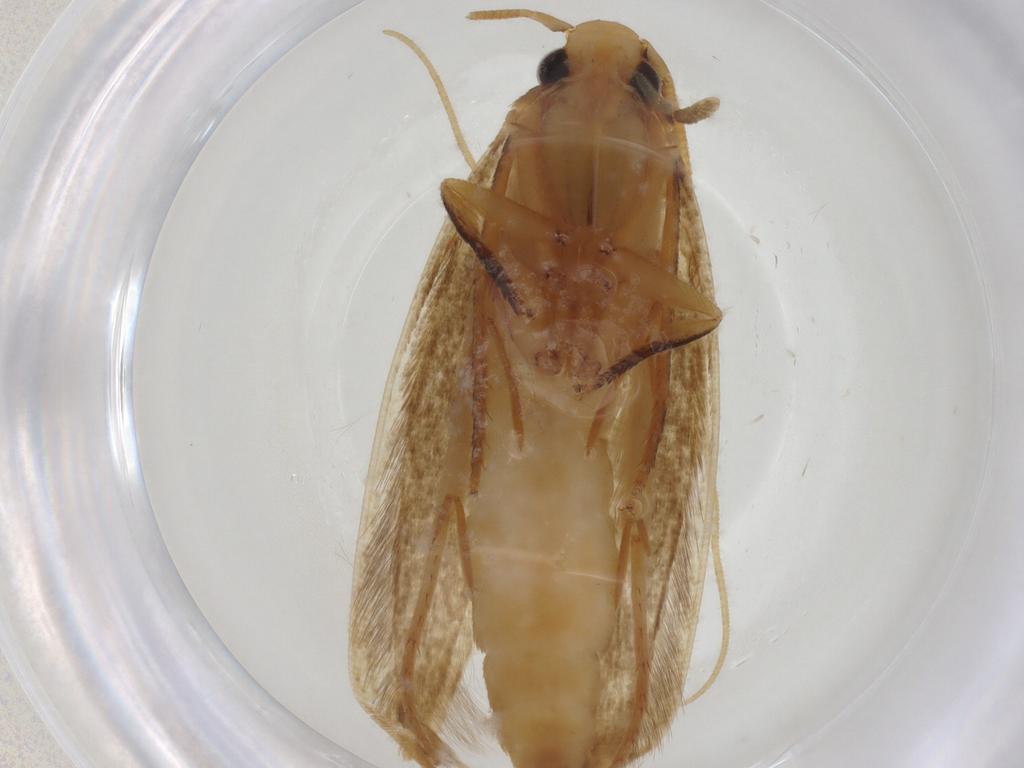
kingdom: Animalia
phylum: Arthropoda
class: Insecta
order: Lepidoptera
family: Tineidae
